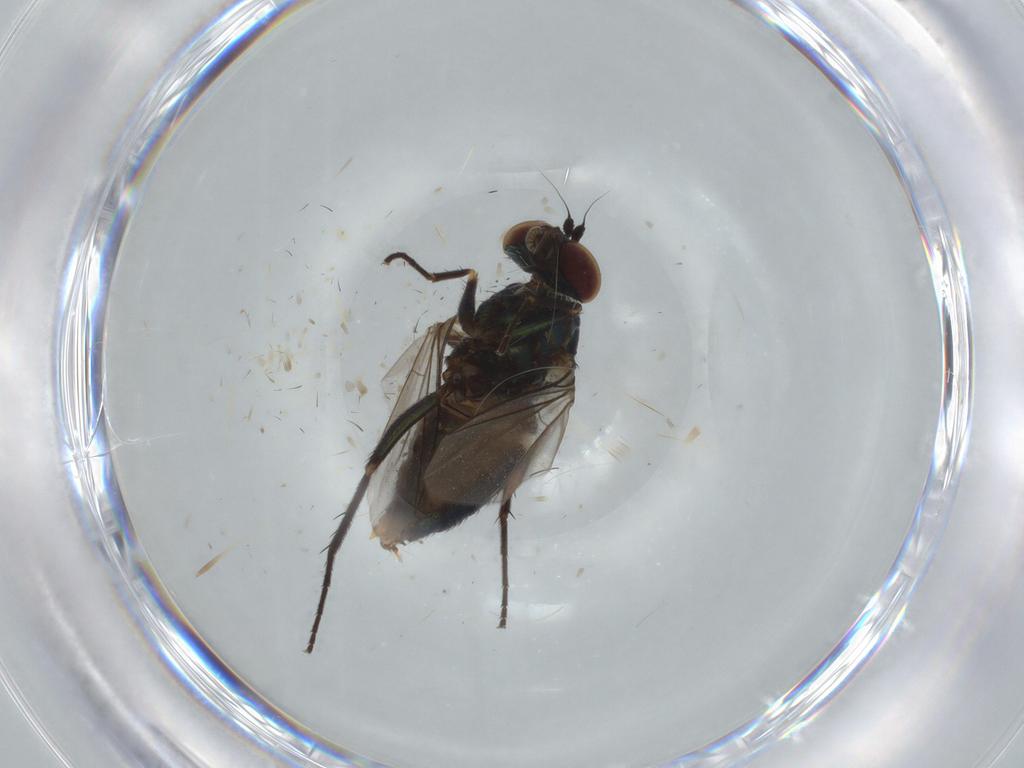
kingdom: Animalia
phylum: Arthropoda
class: Insecta
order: Diptera
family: Dolichopodidae
